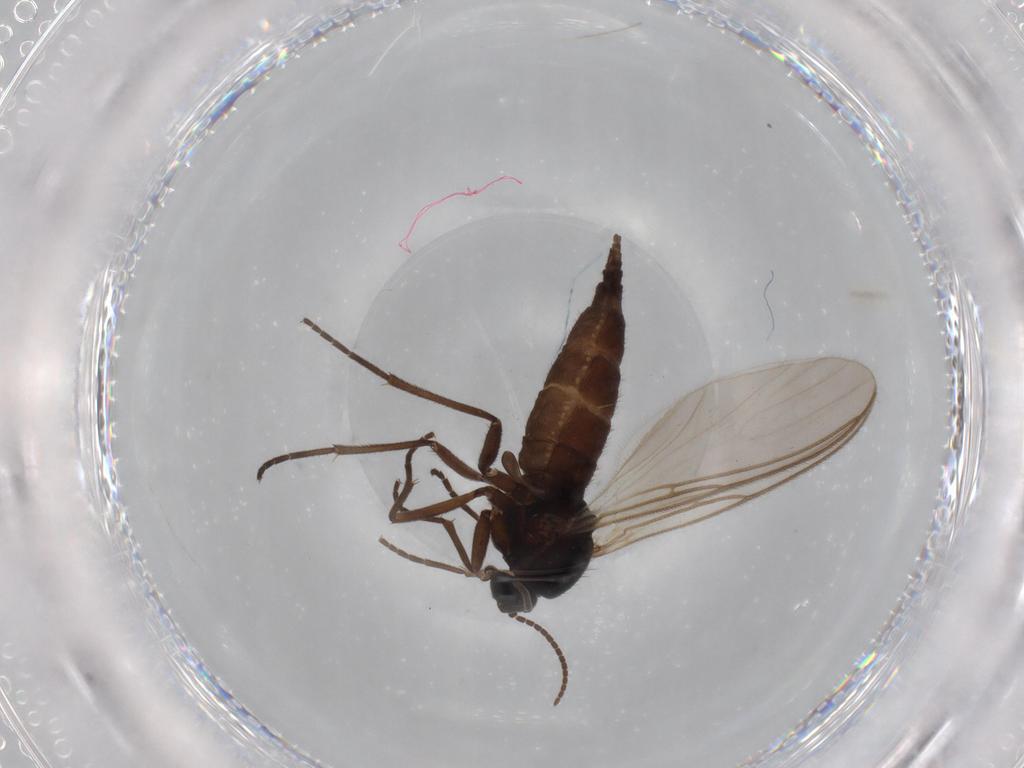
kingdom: Animalia
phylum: Arthropoda
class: Insecta
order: Diptera
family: Sciaridae
